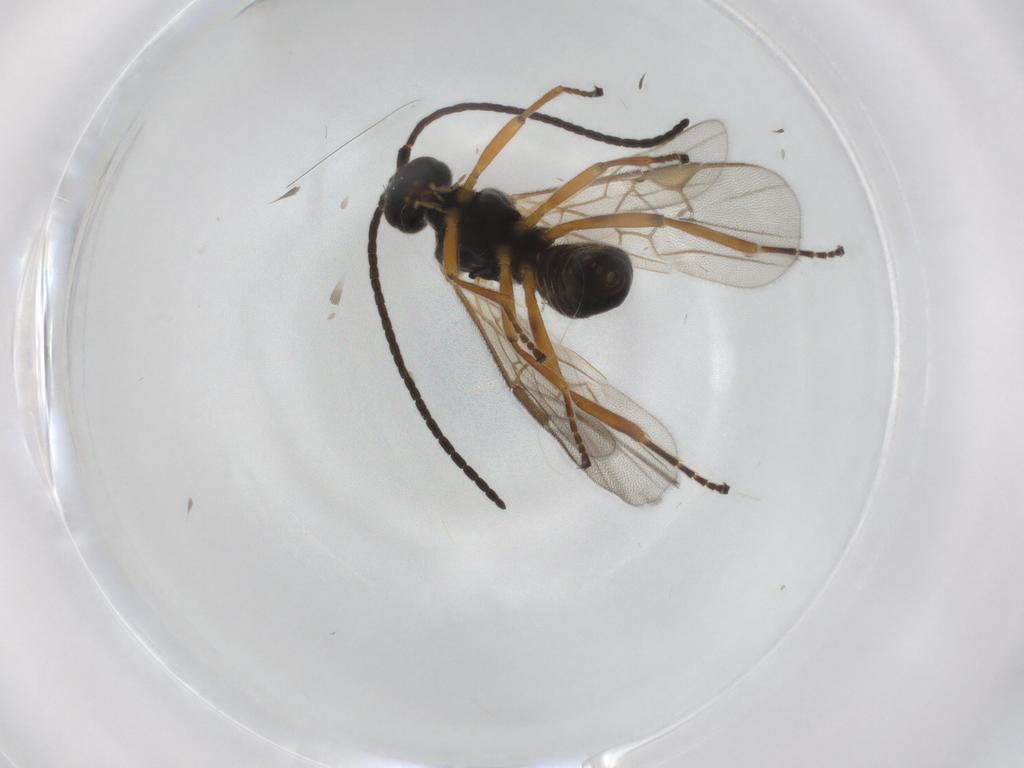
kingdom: Animalia
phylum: Arthropoda
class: Insecta
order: Hymenoptera
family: Braconidae
